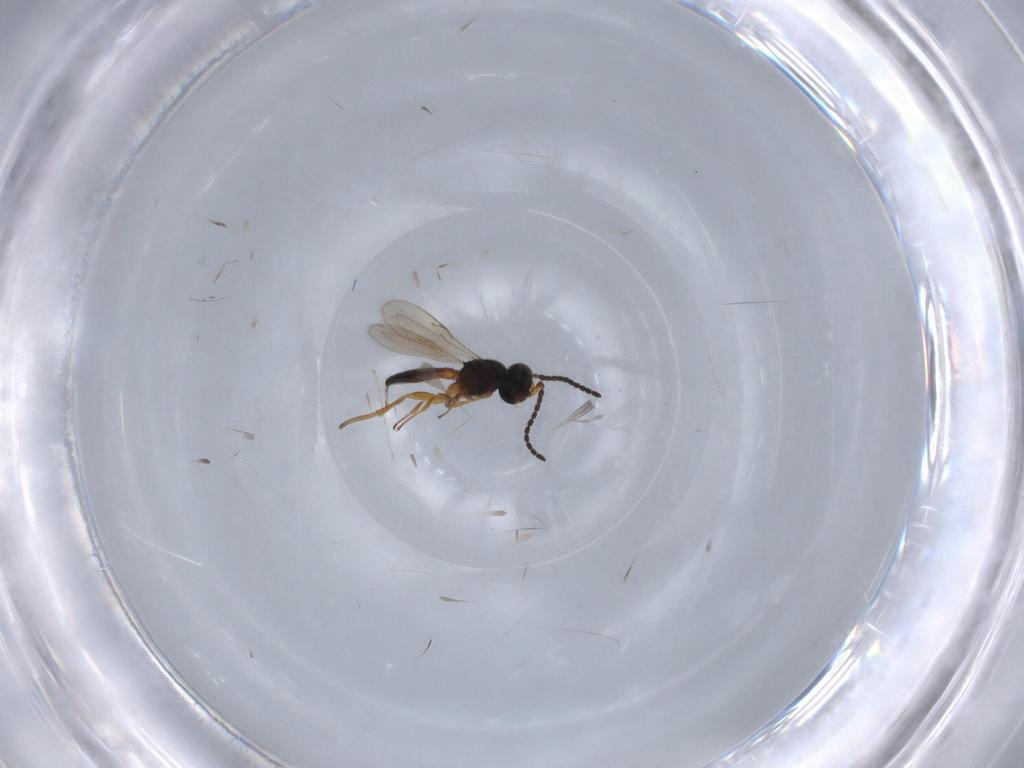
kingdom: Animalia
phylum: Arthropoda
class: Insecta
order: Hymenoptera
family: Scelionidae
